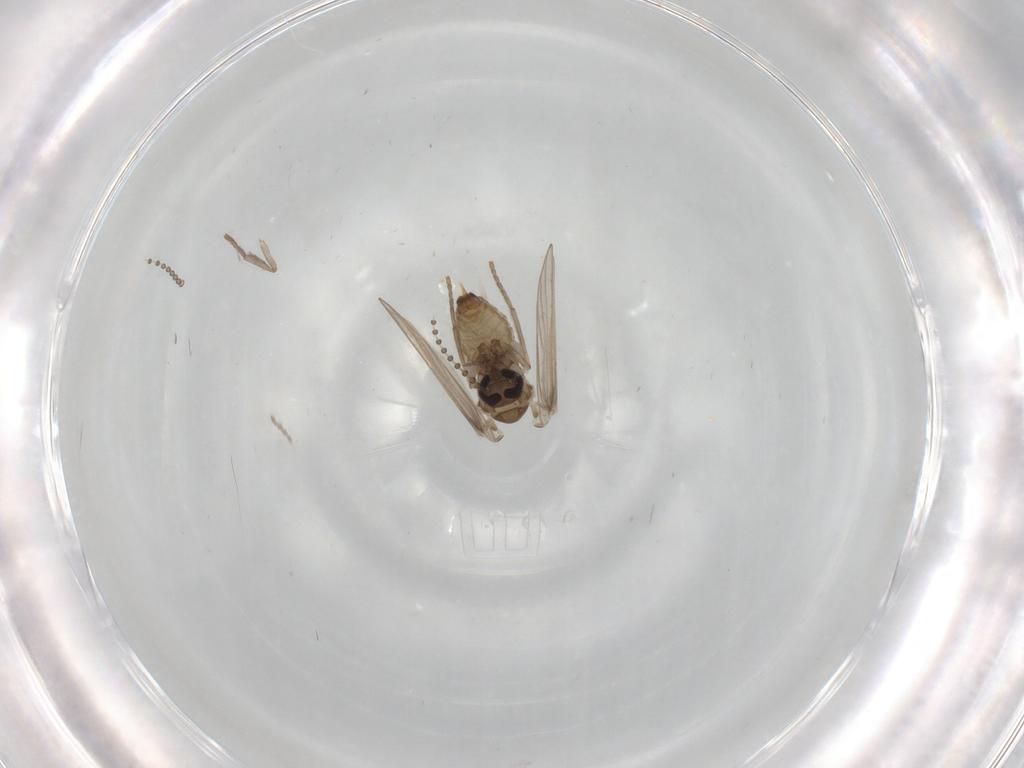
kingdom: Animalia
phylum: Arthropoda
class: Insecta
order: Diptera
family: Psychodidae
